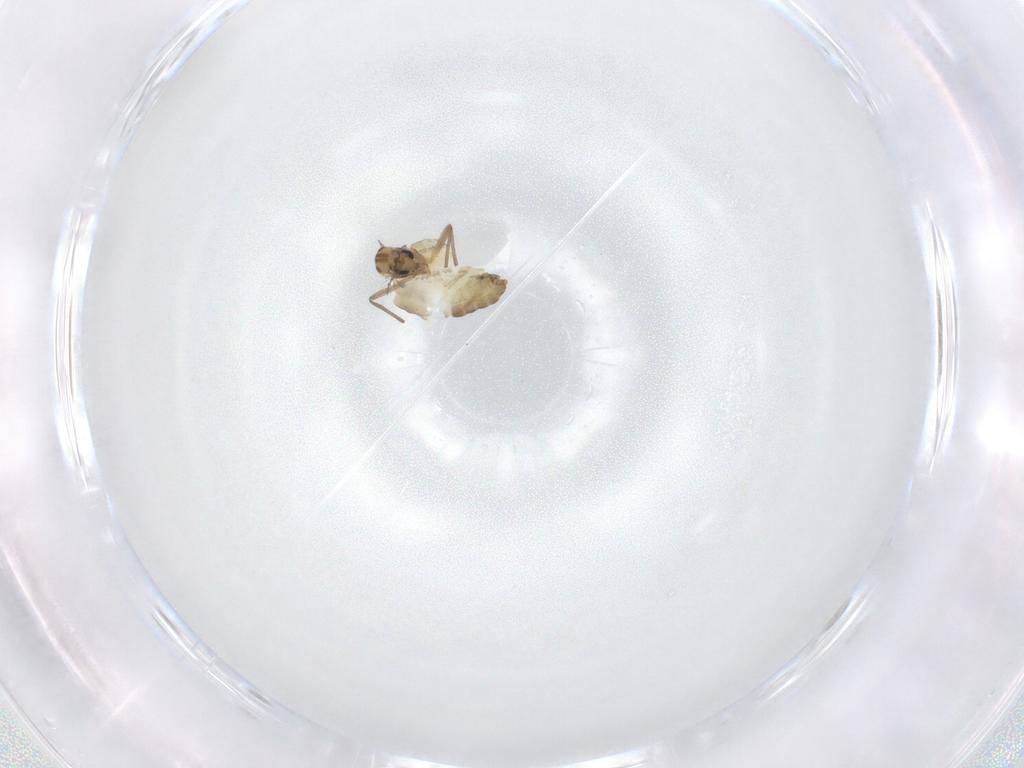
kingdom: Animalia
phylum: Arthropoda
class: Insecta
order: Diptera
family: Chironomidae
